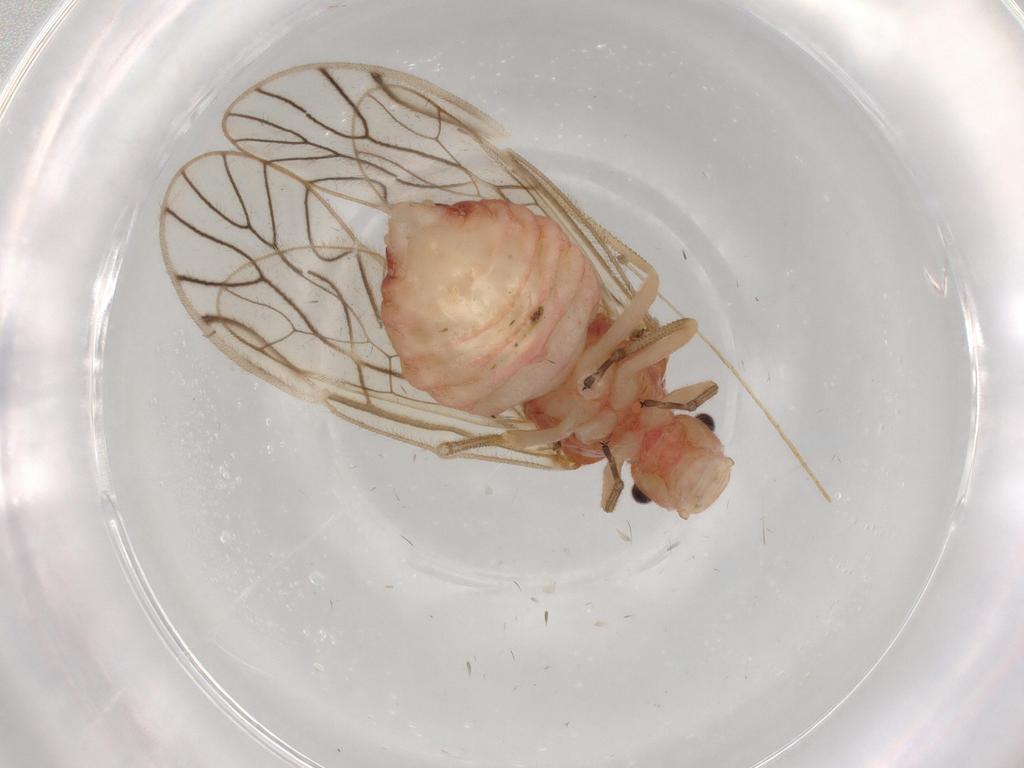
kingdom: Animalia
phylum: Arthropoda
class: Insecta
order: Psocodea
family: Amphipsocidae
